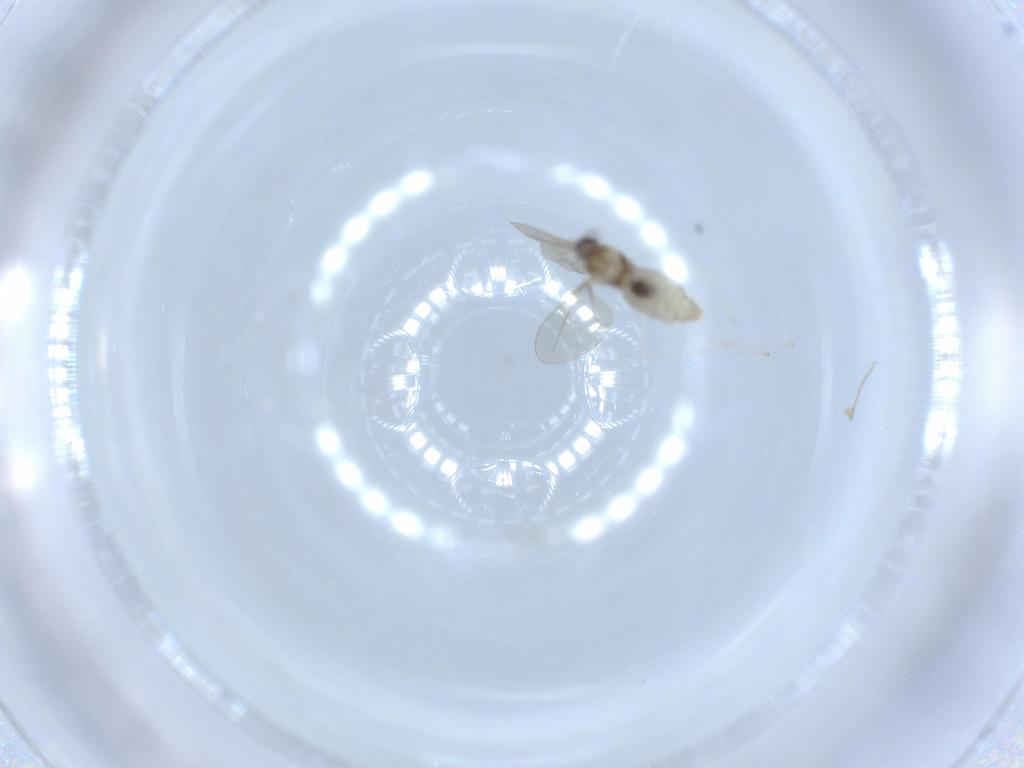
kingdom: Animalia
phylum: Arthropoda
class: Insecta
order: Diptera
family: Cecidomyiidae
